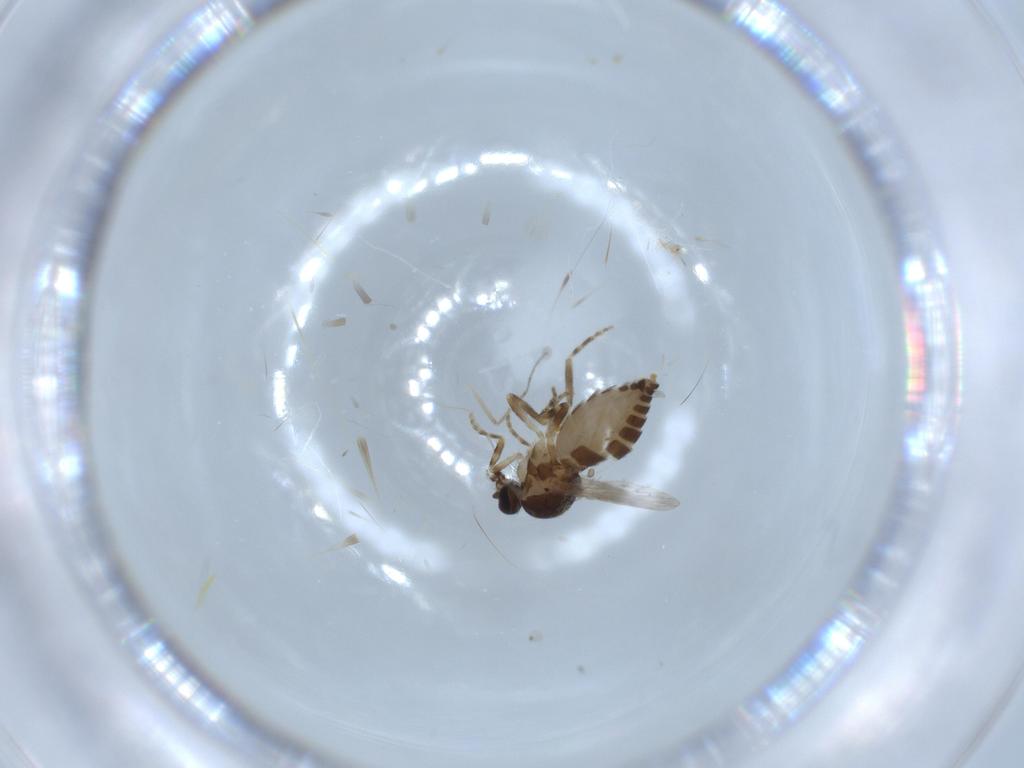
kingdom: Animalia
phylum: Arthropoda
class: Insecta
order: Diptera
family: Ceratopogonidae
